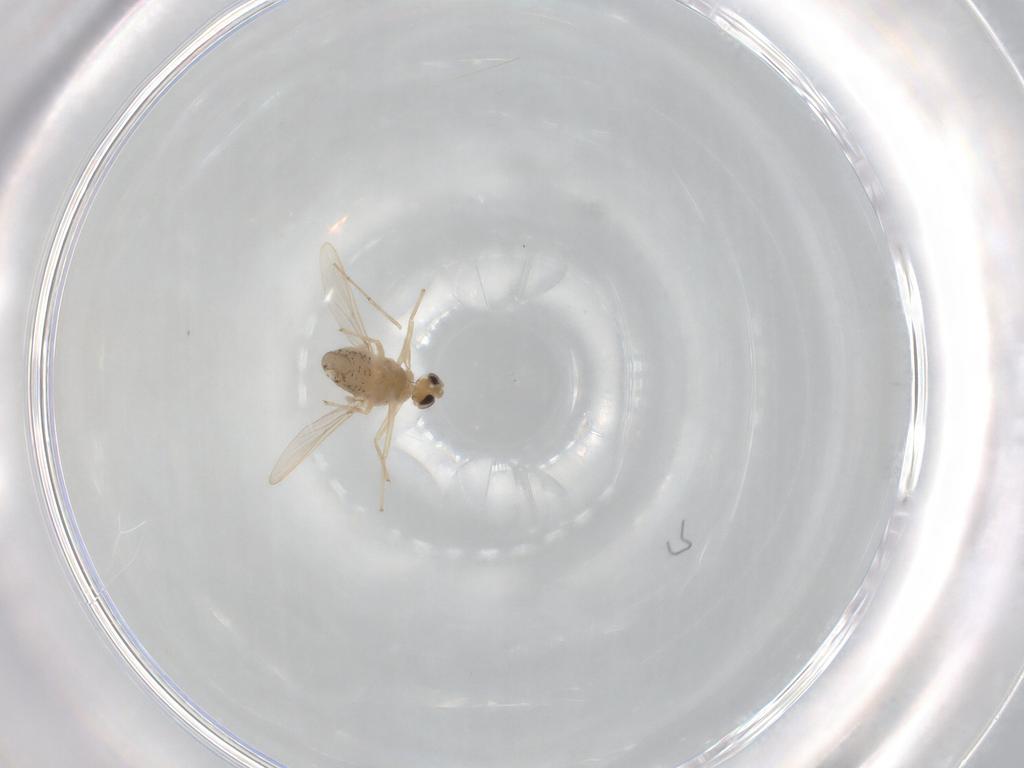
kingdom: Animalia
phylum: Arthropoda
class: Insecta
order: Diptera
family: Chironomidae
